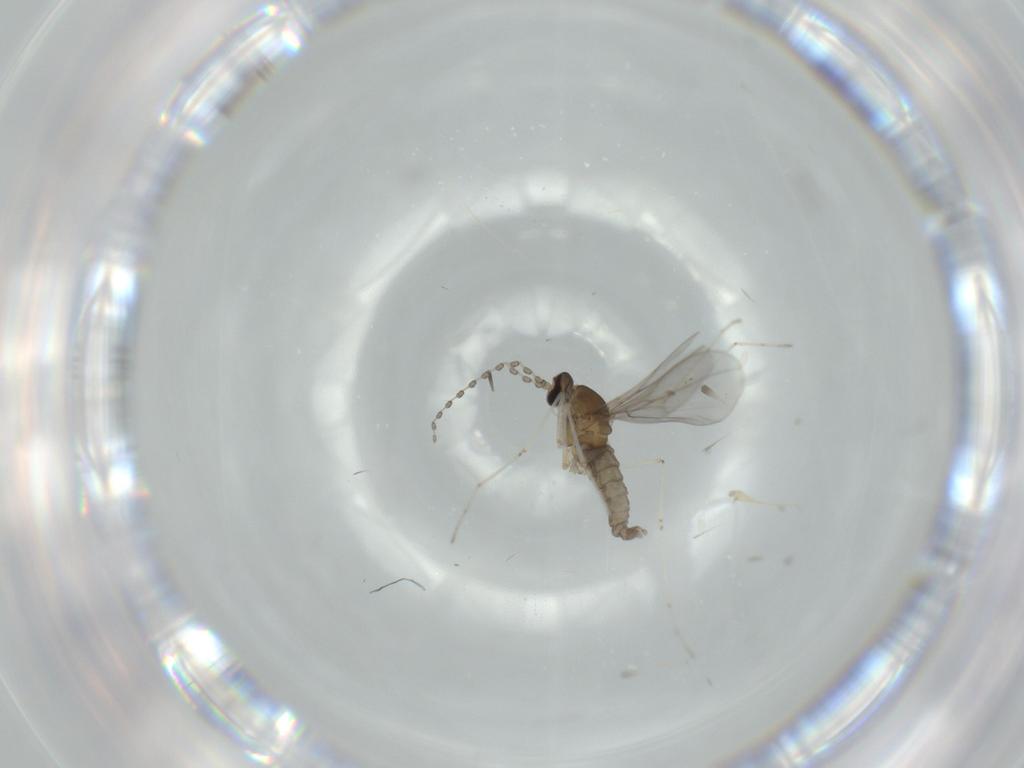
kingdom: Animalia
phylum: Arthropoda
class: Insecta
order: Diptera
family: Cecidomyiidae
